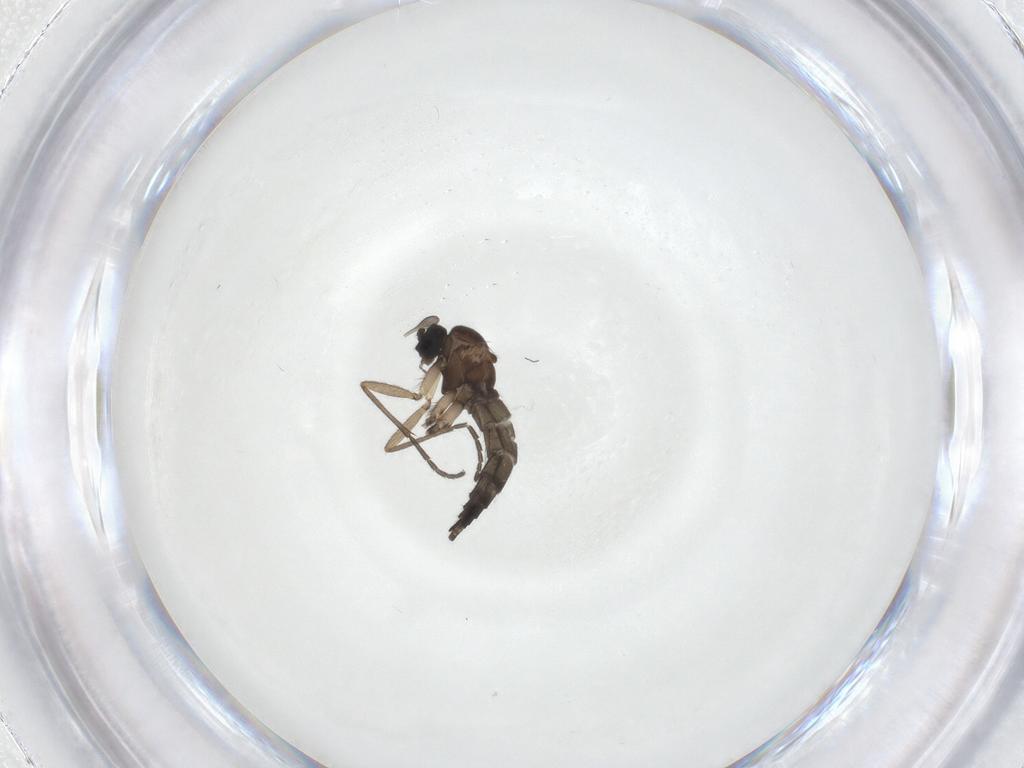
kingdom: Animalia
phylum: Arthropoda
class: Insecta
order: Diptera
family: Sciaridae
